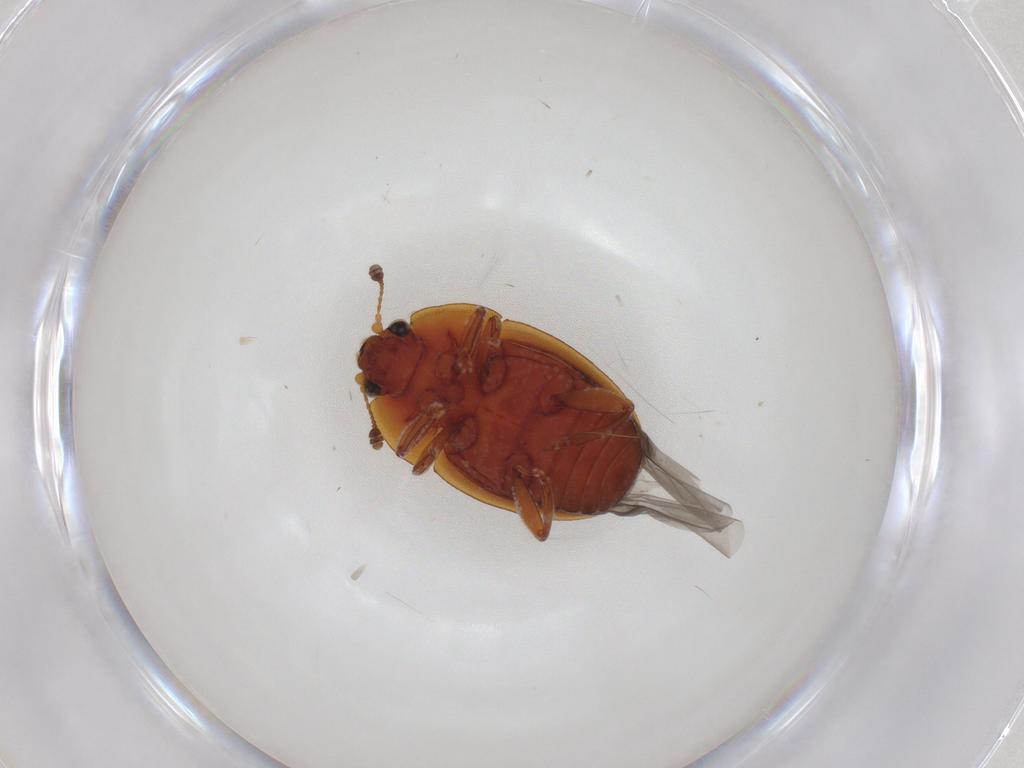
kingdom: Animalia
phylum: Arthropoda
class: Insecta
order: Coleoptera
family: Nitidulidae
